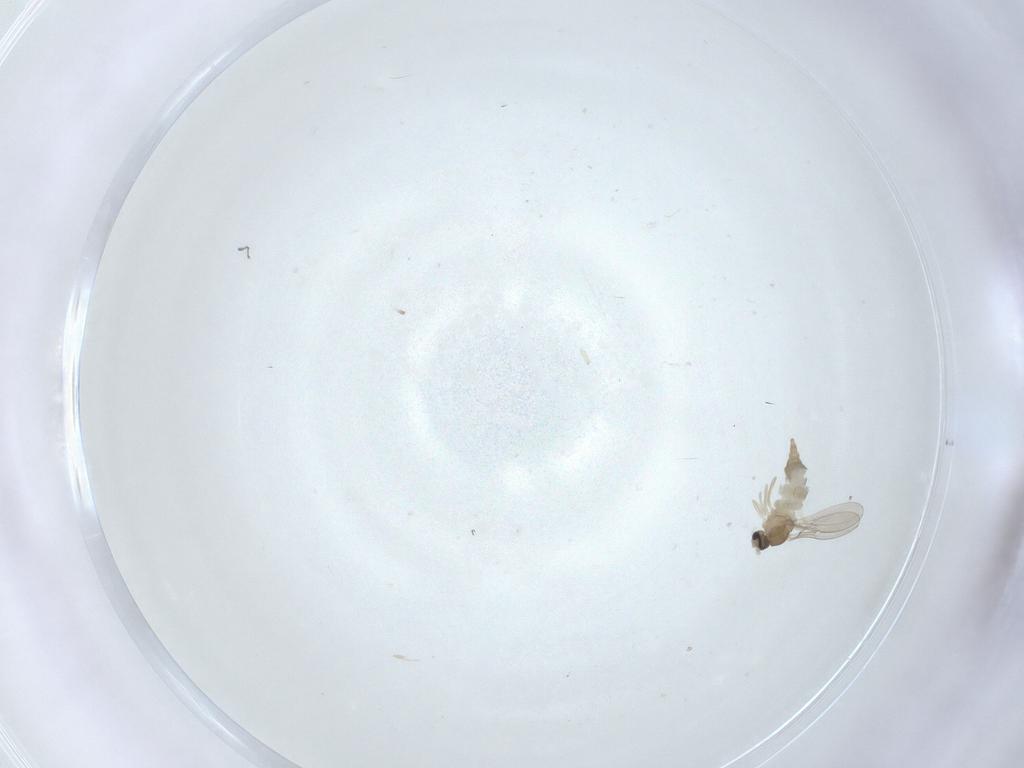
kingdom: Animalia
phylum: Arthropoda
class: Insecta
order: Diptera
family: Cecidomyiidae
